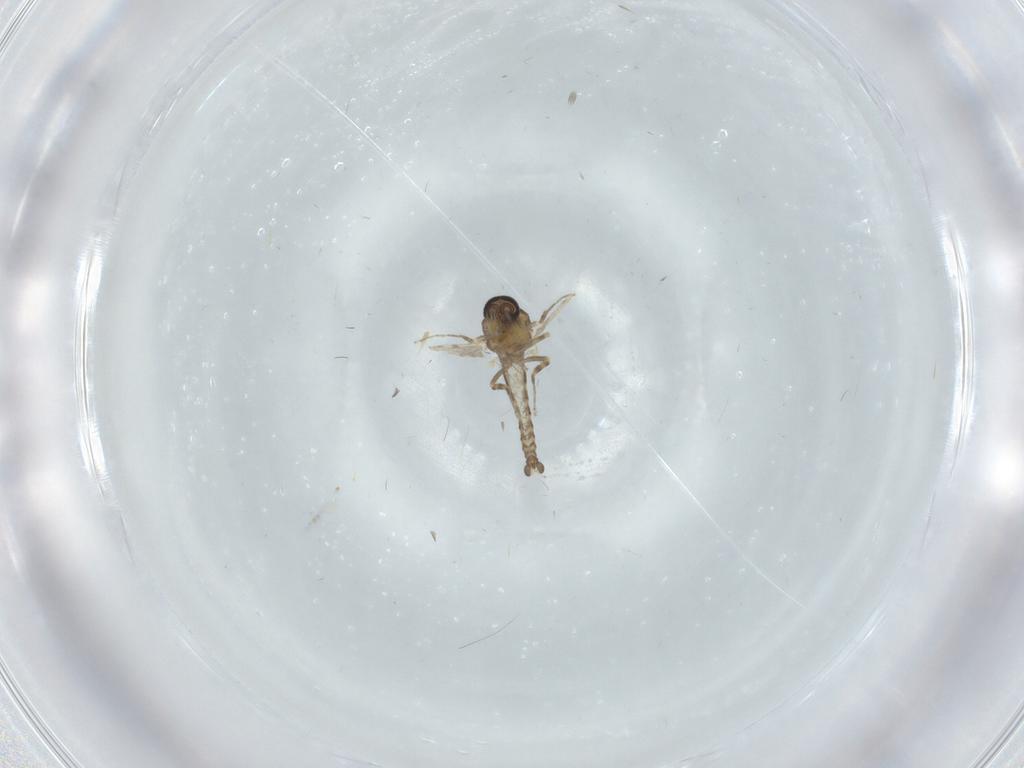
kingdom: Animalia
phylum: Arthropoda
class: Insecta
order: Diptera
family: Ceratopogonidae
